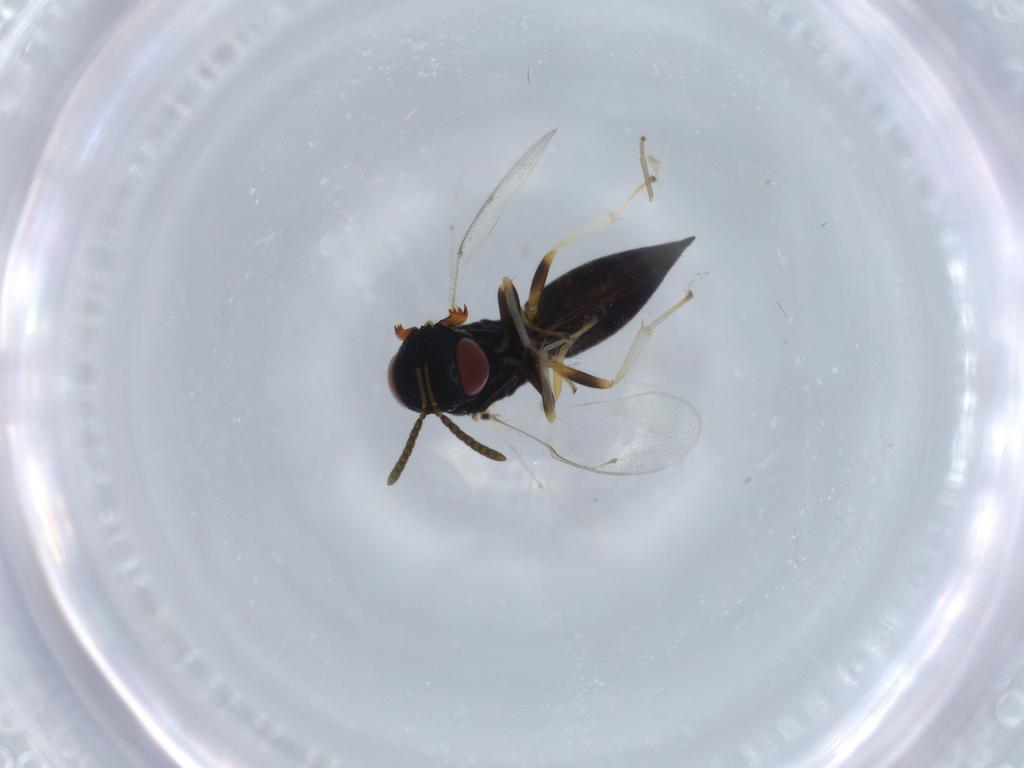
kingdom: Animalia
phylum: Arthropoda
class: Insecta
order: Hymenoptera
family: Pteromalidae
